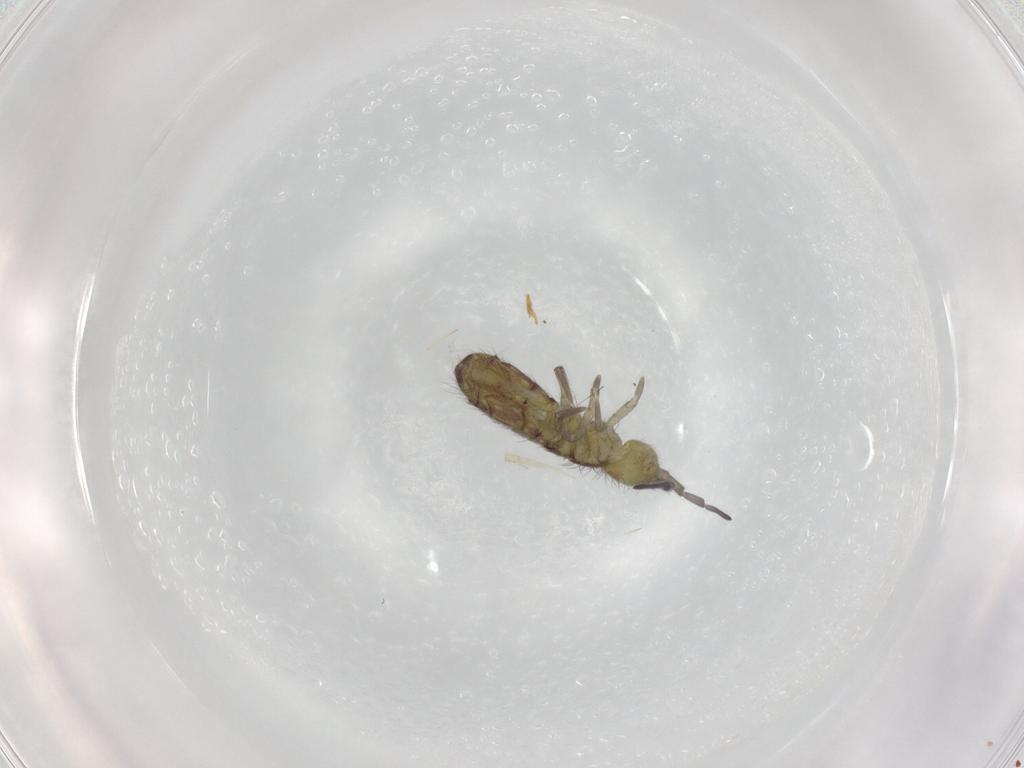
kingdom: Animalia
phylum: Arthropoda
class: Collembola
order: Entomobryomorpha
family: Isotomidae
